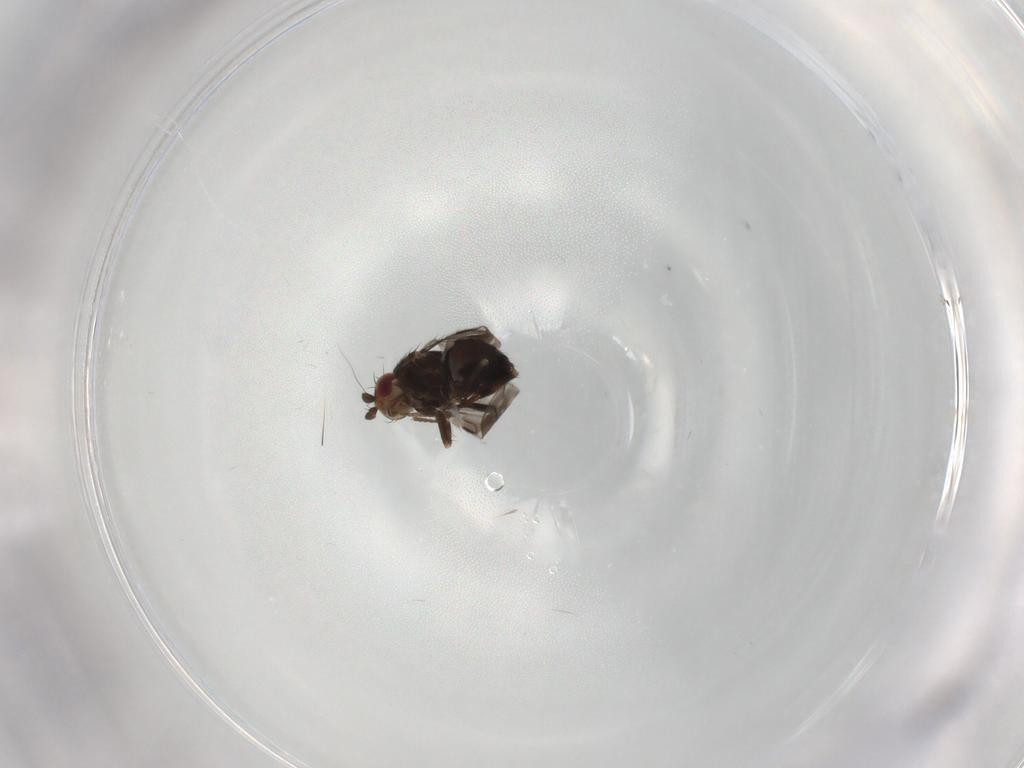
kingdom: Animalia
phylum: Arthropoda
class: Insecta
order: Diptera
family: Sphaeroceridae
